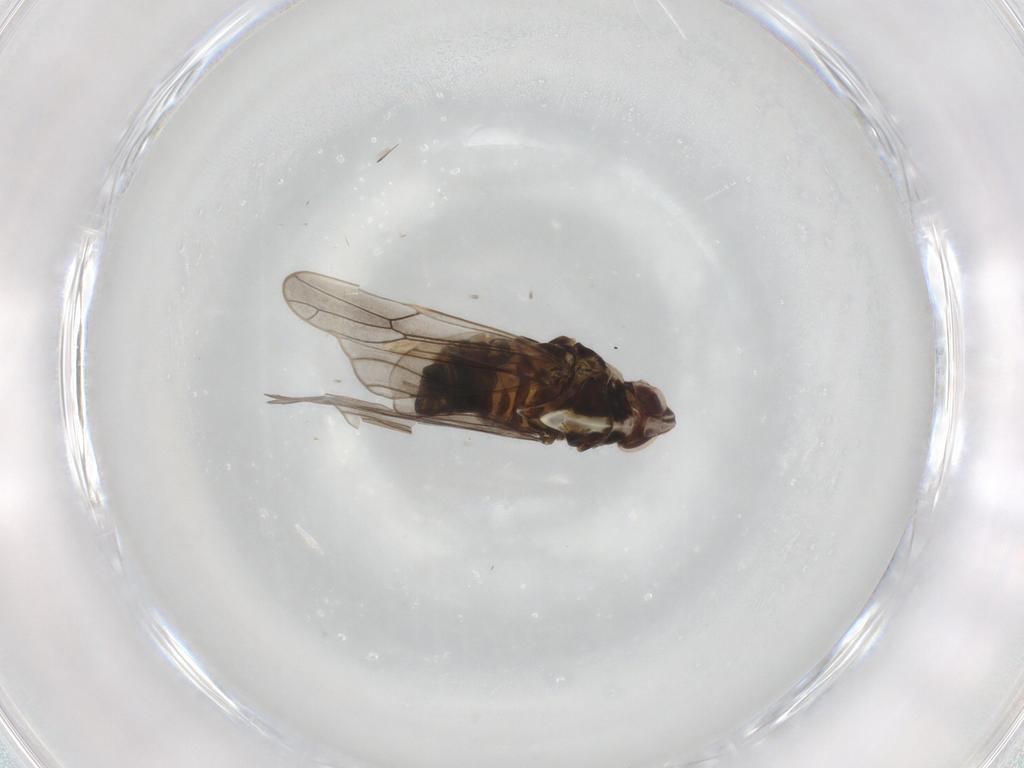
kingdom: Animalia
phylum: Arthropoda
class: Insecta
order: Hemiptera
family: Delphacidae
